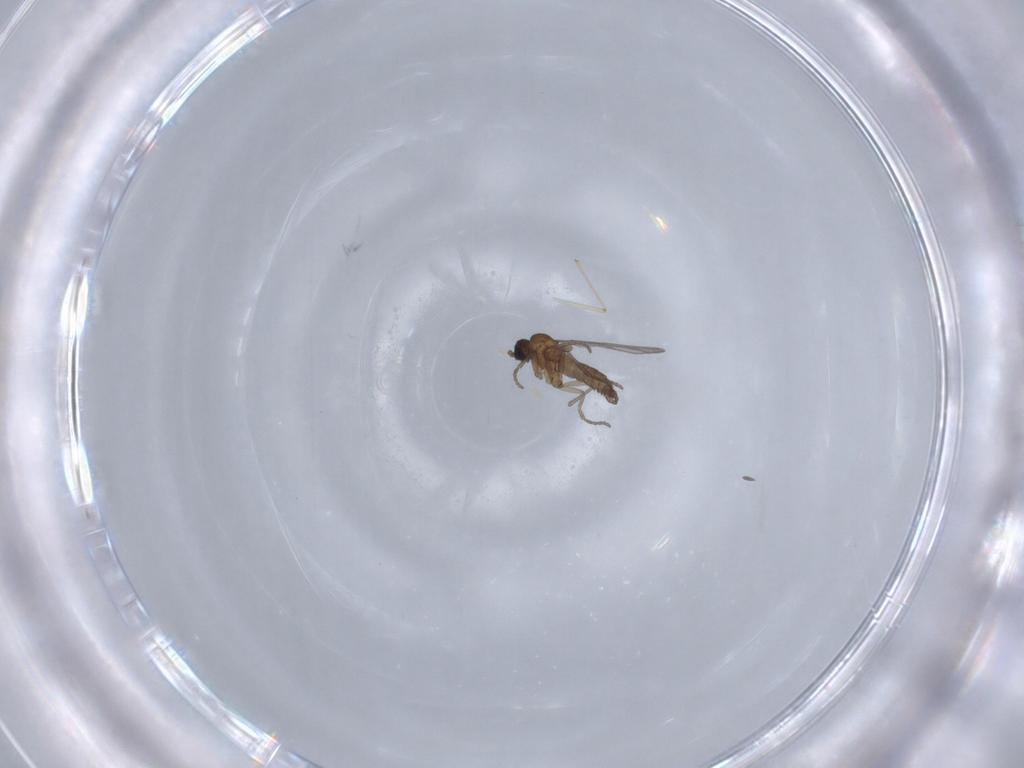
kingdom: Animalia
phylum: Arthropoda
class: Insecta
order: Diptera
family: Sciaridae
